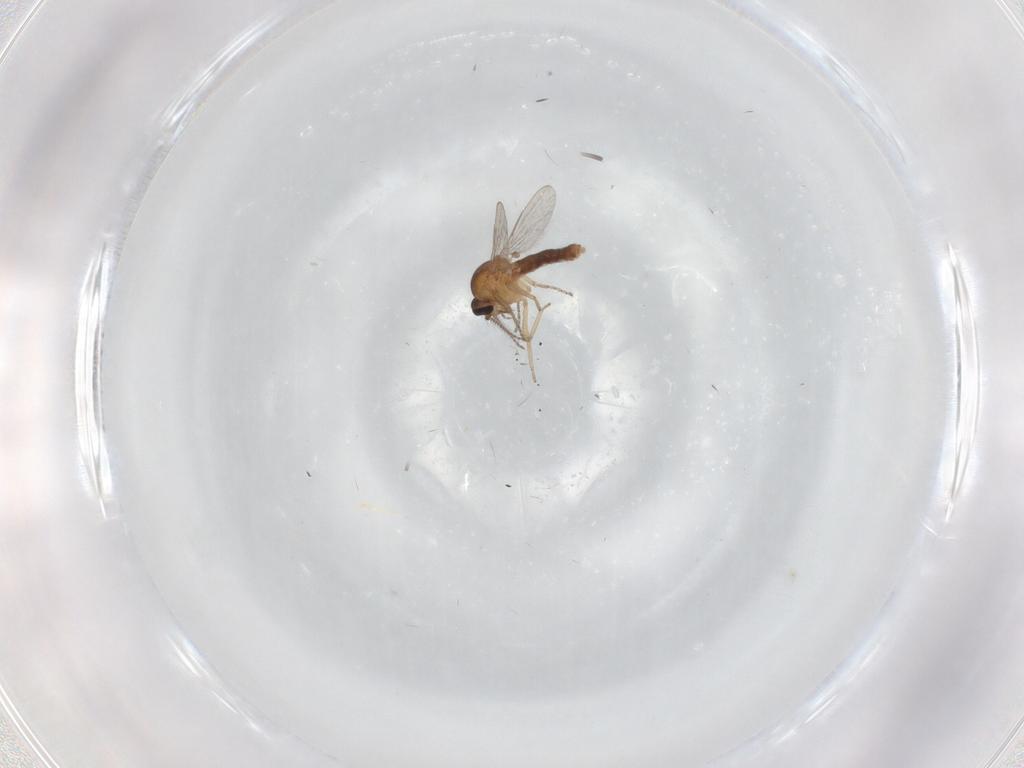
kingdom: Animalia
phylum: Arthropoda
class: Insecta
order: Diptera
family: Ceratopogonidae
